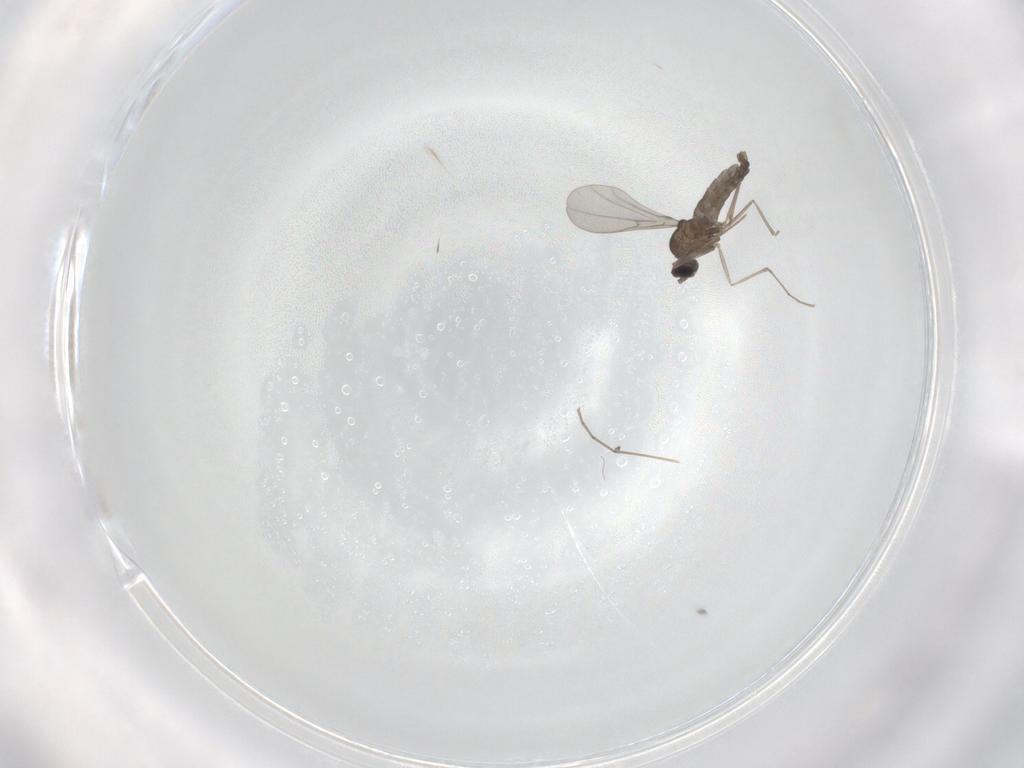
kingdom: Animalia
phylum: Arthropoda
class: Insecta
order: Diptera
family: Cecidomyiidae
